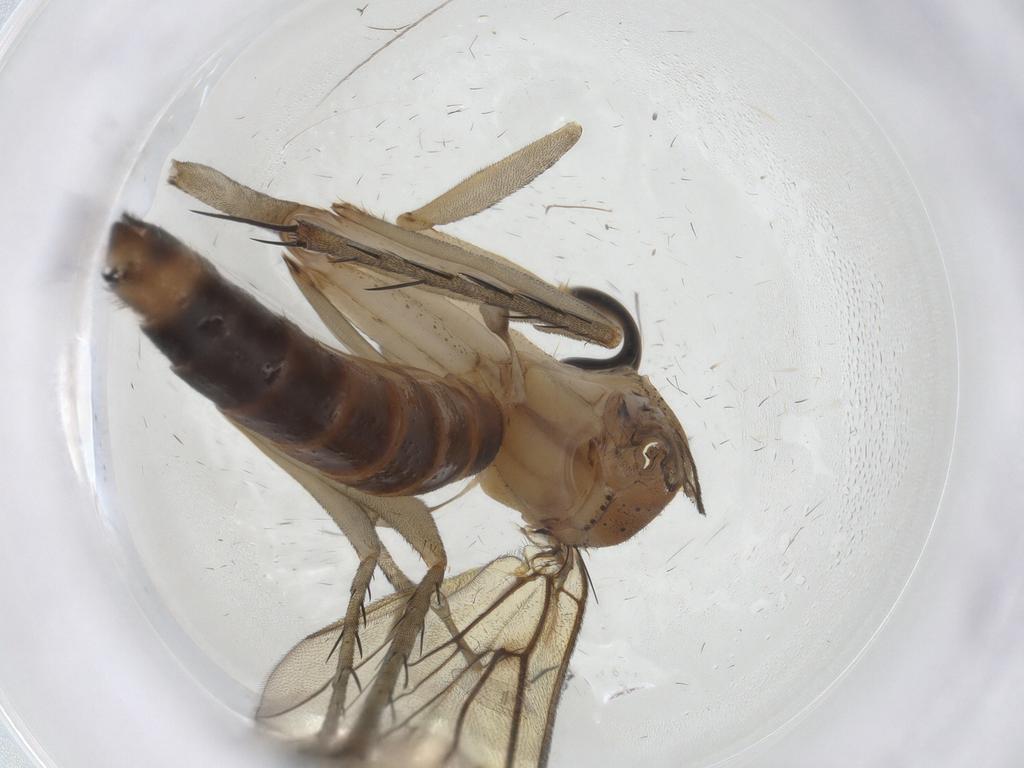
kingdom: Animalia
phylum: Arthropoda
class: Insecta
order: Diptera
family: Ditomyiidae
